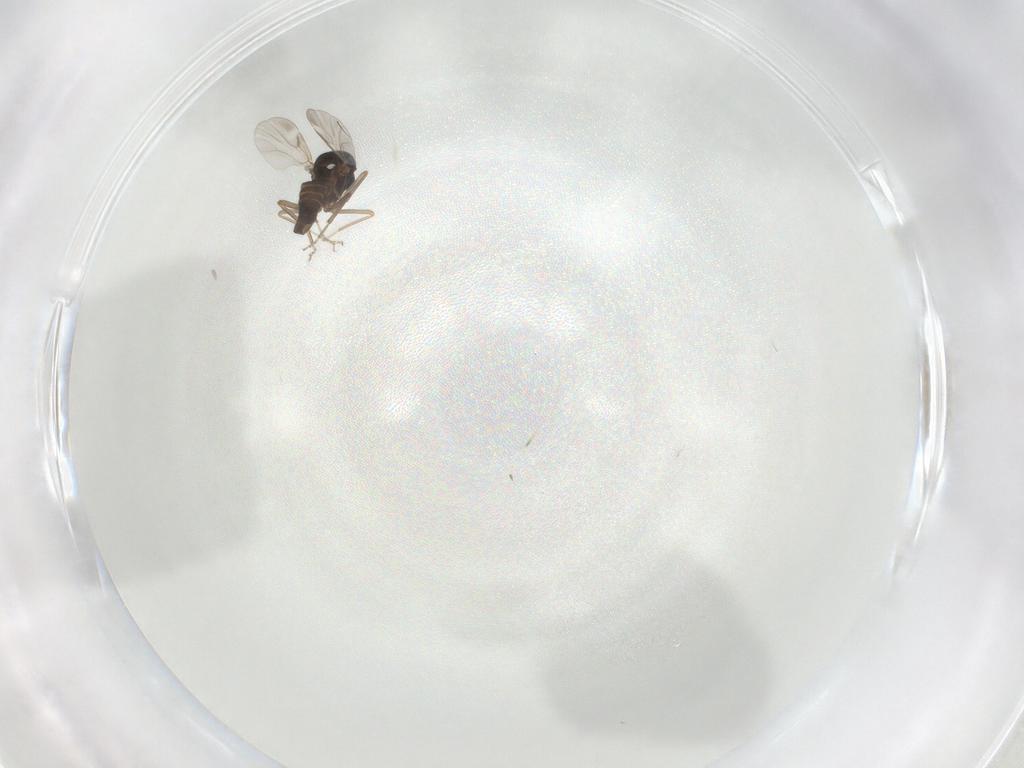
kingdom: Animalia
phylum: Arthropoda
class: Insecta
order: Diptera
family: Ceratopogonidae
